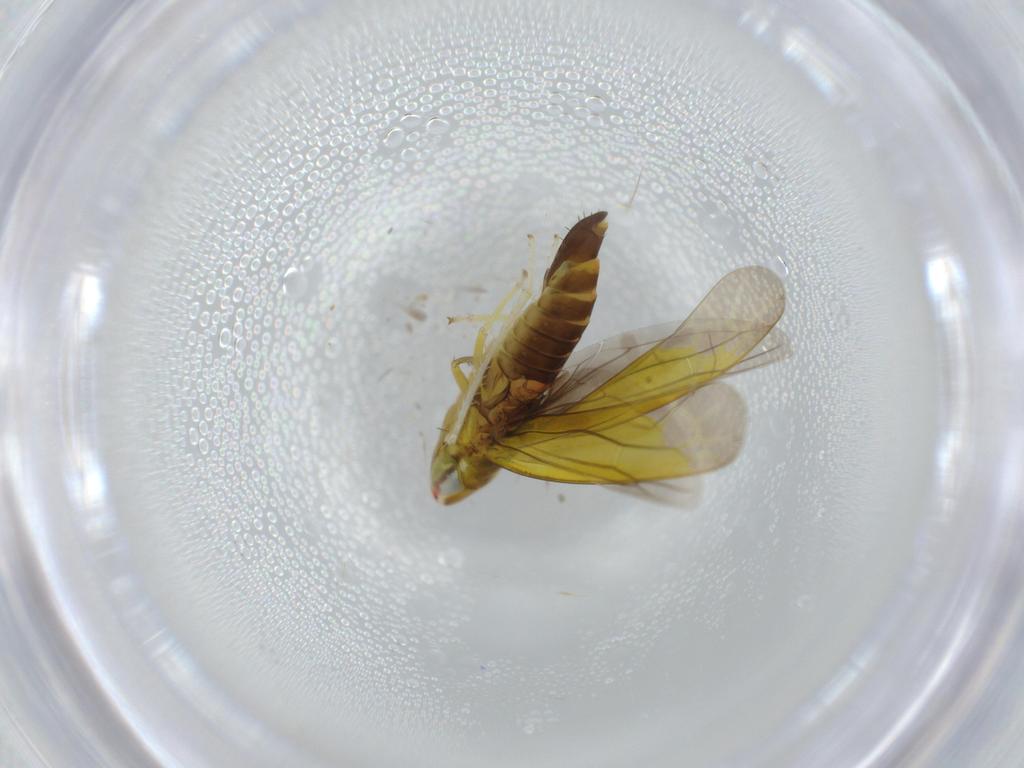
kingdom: Animalia
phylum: Arthropoda
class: Insecta
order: Hemiptera
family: Cicadellidae
